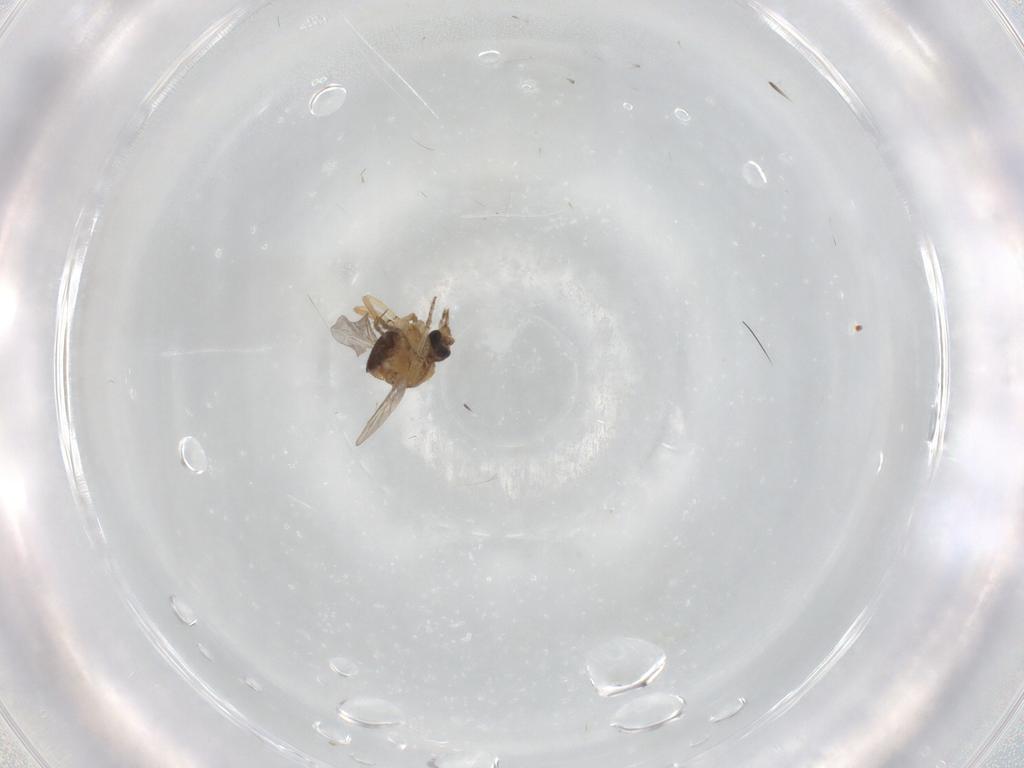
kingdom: Animalia
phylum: Arthropoda
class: Insecta
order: Diptera
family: Ceratopogonidae
